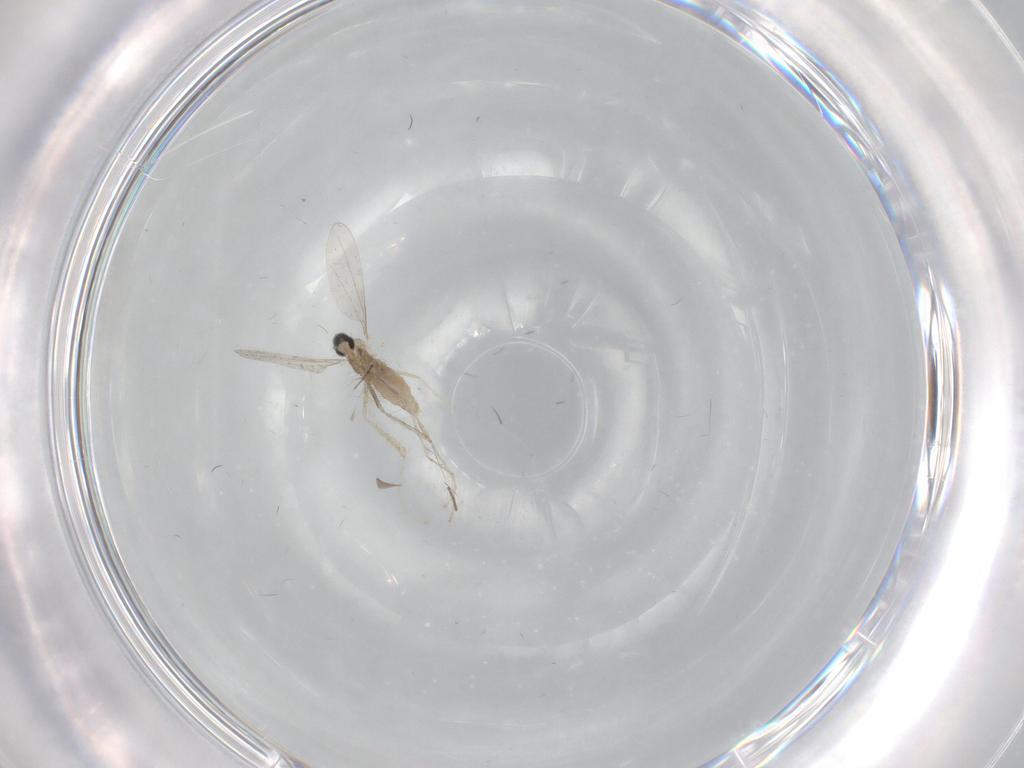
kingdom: Animalia
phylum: Arthropoda
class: Insecta
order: Diptera
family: Chironomidae
